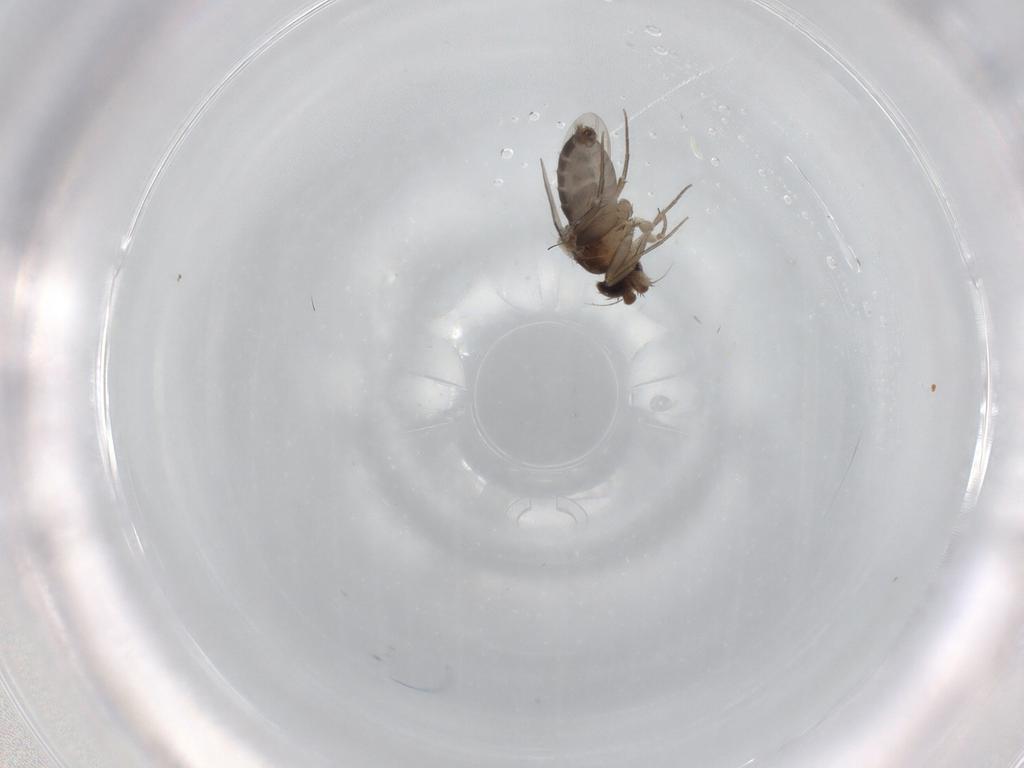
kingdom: Animalia
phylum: Arthropoda
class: Insecta
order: Diptera
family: Phoridae
